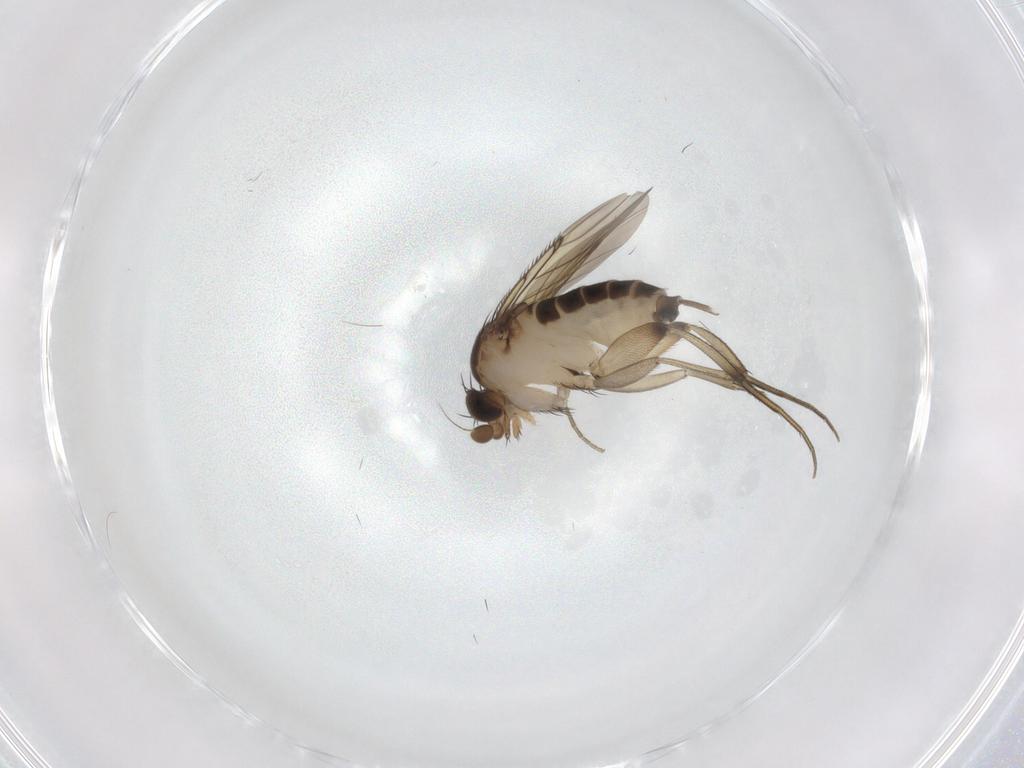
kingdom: Animalia
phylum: Arthropoda
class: Insecta
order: Diptera
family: Phoridae
